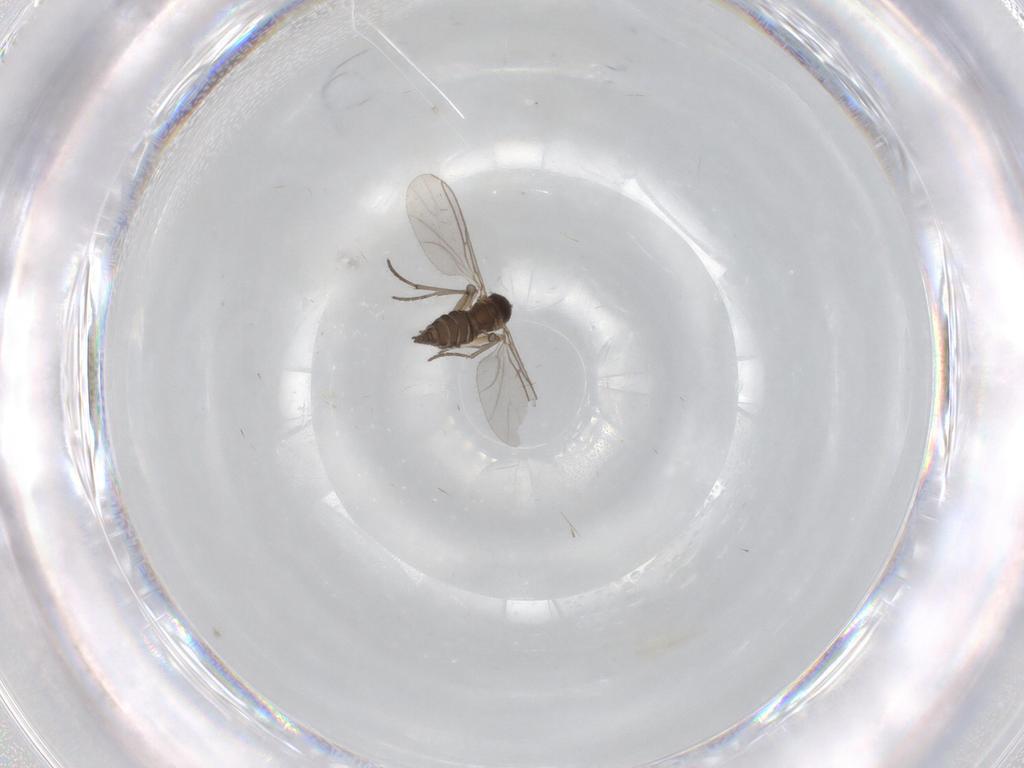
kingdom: Animalia
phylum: Arthropoda
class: Insecta
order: Diptera
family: Sciaridae
